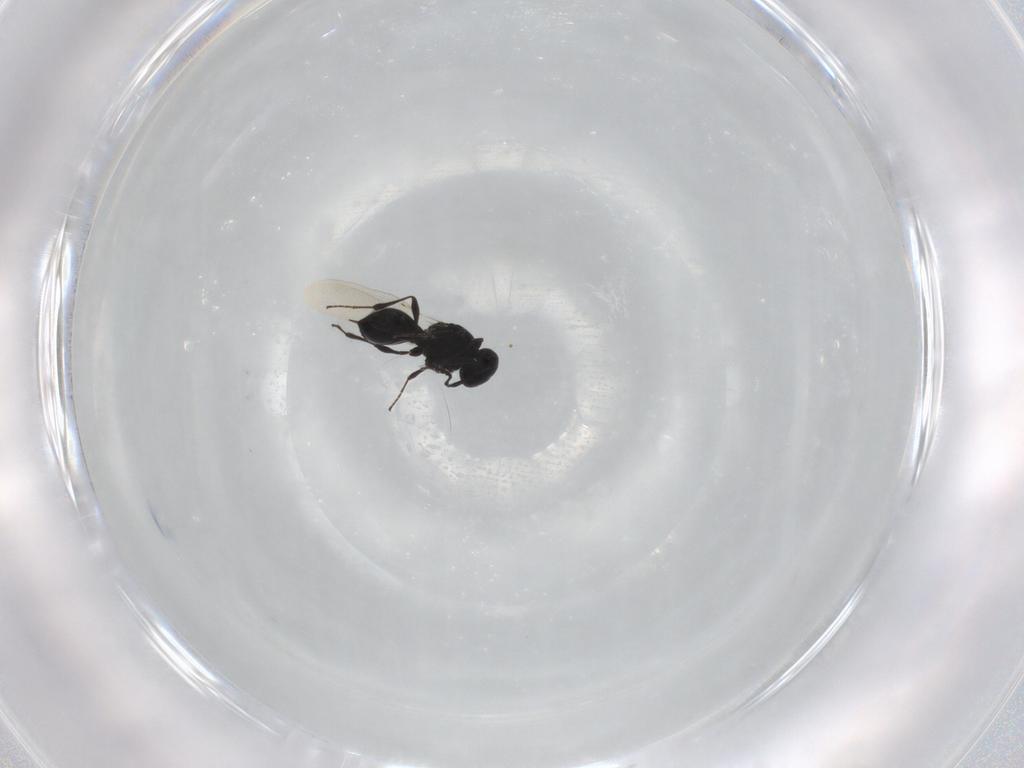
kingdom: Animalia
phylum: Arthropoda
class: Insecta
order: Hymenoptera
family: Platygastridae
